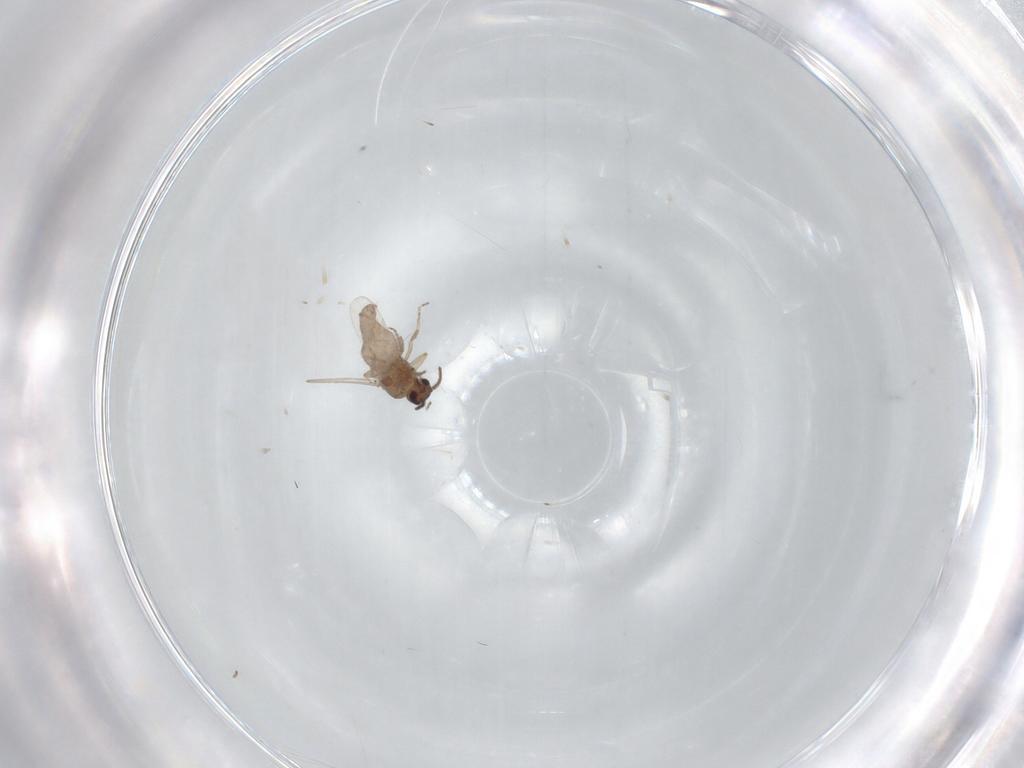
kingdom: Animalia
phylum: Arthropoda
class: Insecta
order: Diptera
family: Ceratopogonidae
